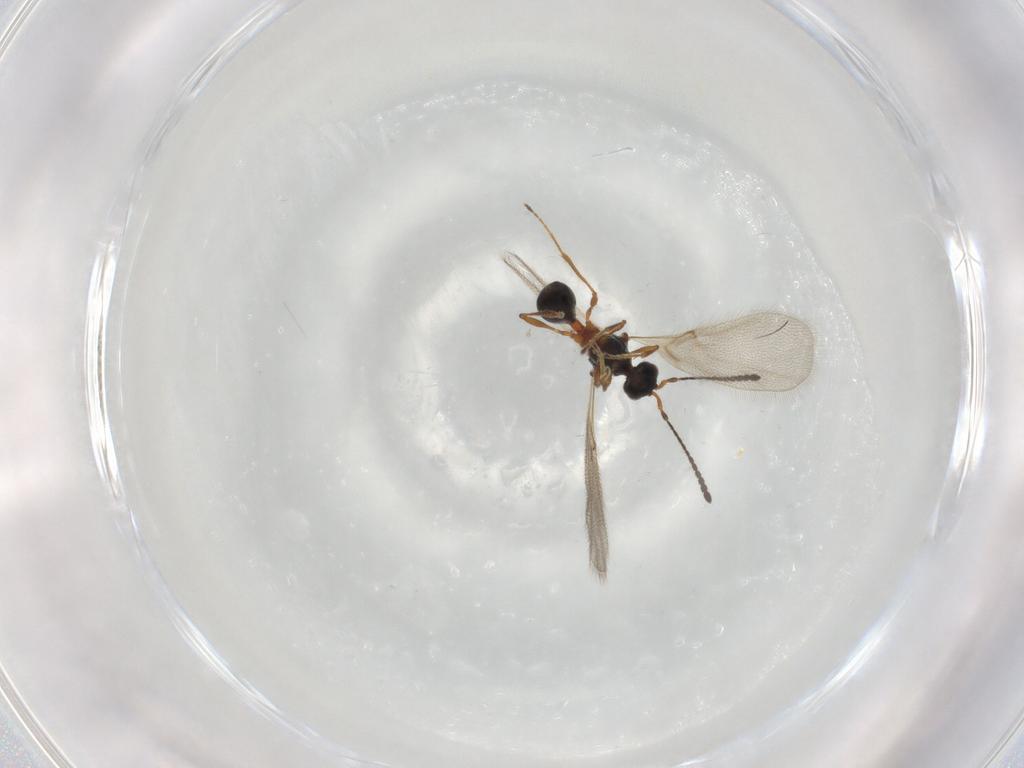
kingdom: Animalia
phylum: Arthropoda
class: Insecta
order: Hymenoptera
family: Diapriidae
